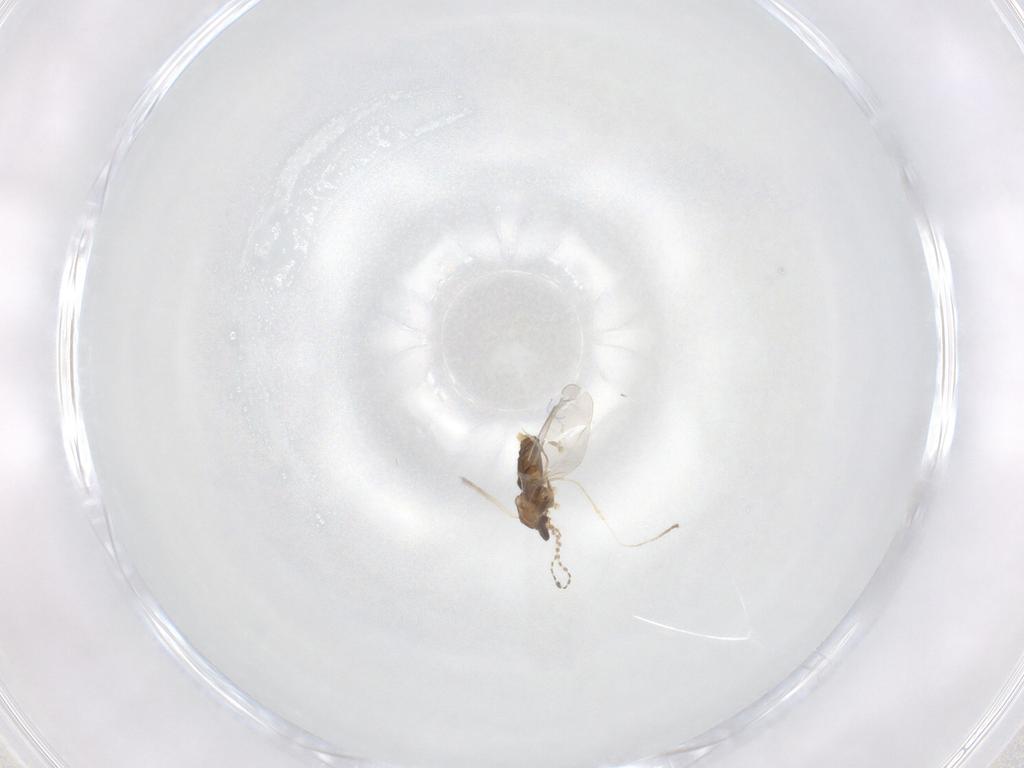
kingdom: Animalia
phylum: Arthropoda
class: Insecta
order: Diptera
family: Cecidomyiidae
